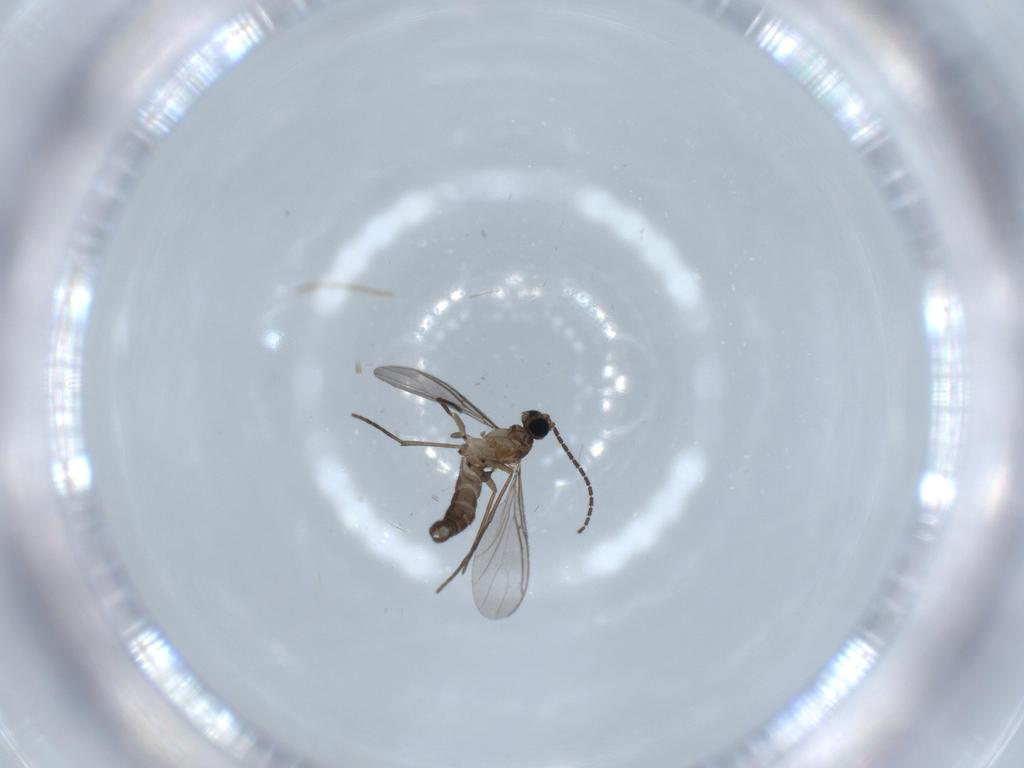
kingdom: Animalia
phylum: Arthropoda
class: Insecta
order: Diptera
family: Sciaridae
